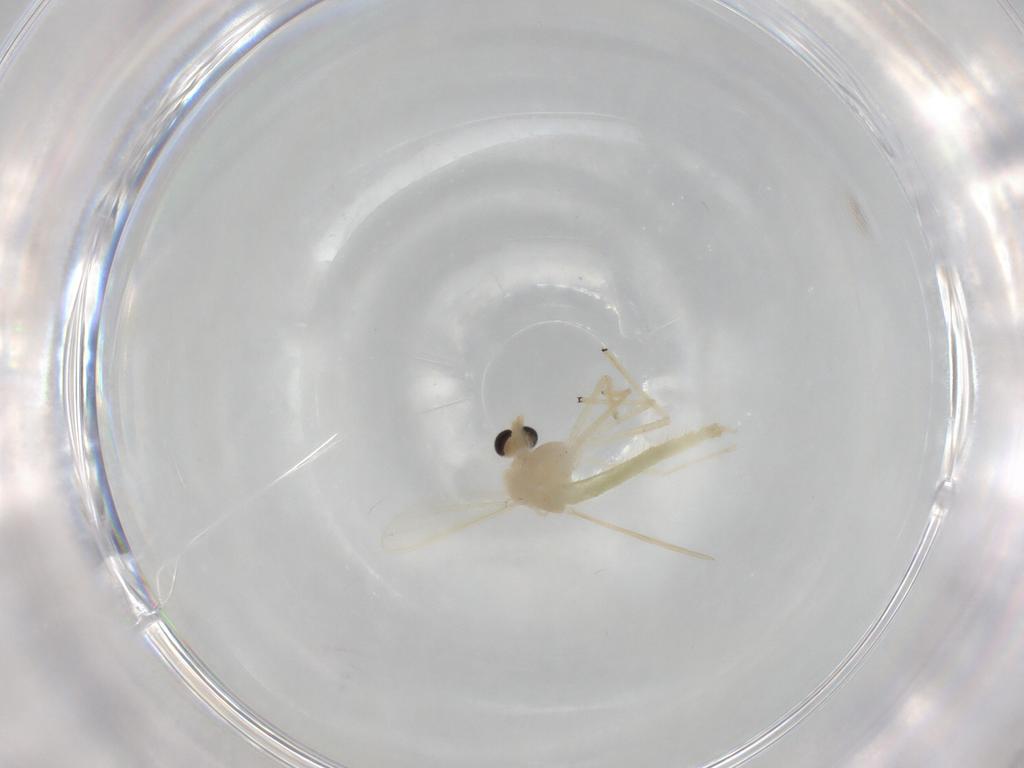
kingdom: Animalia
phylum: Arthropoda
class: Insecta
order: Diptera
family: Chironomidae
